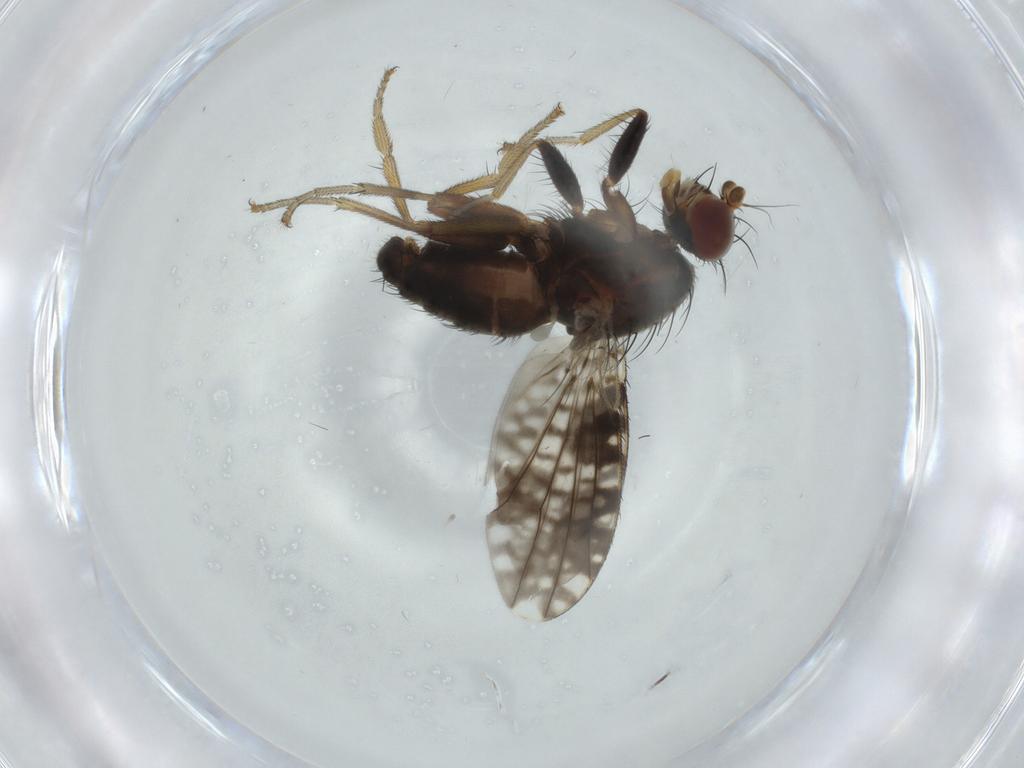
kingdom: Animalia
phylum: Arthropoda
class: Insecta
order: Diptera
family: Tephritidae
